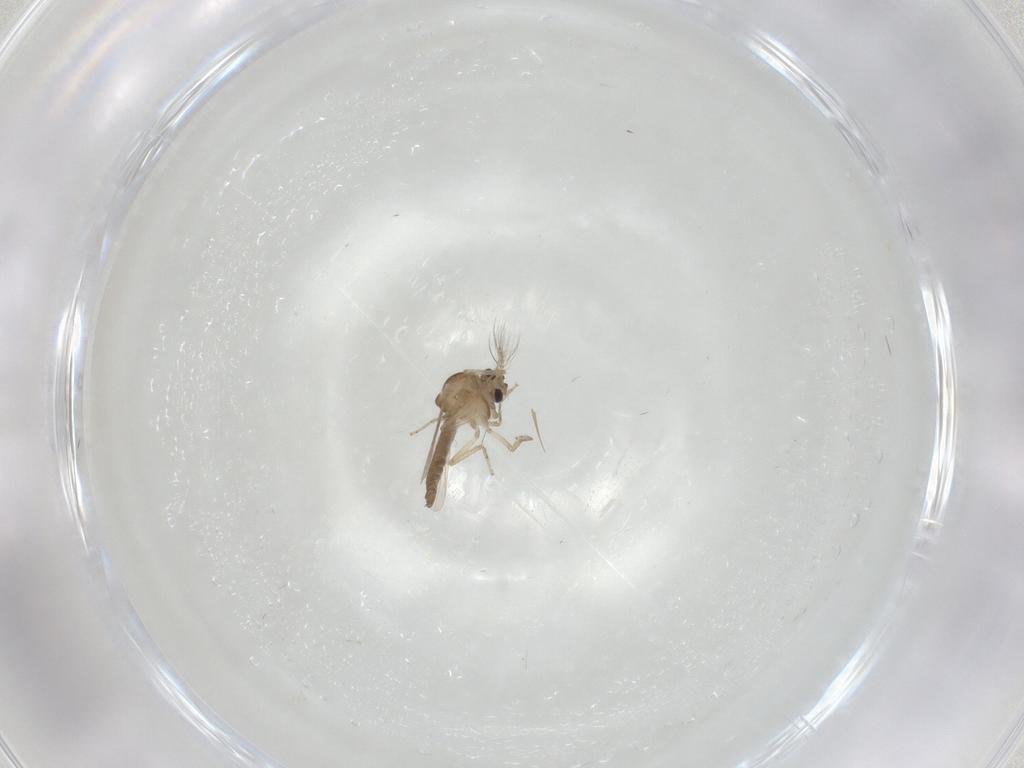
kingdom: Animalia
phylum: Arthropoda
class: Insecta
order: Diptera
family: Ceratopogonidae
